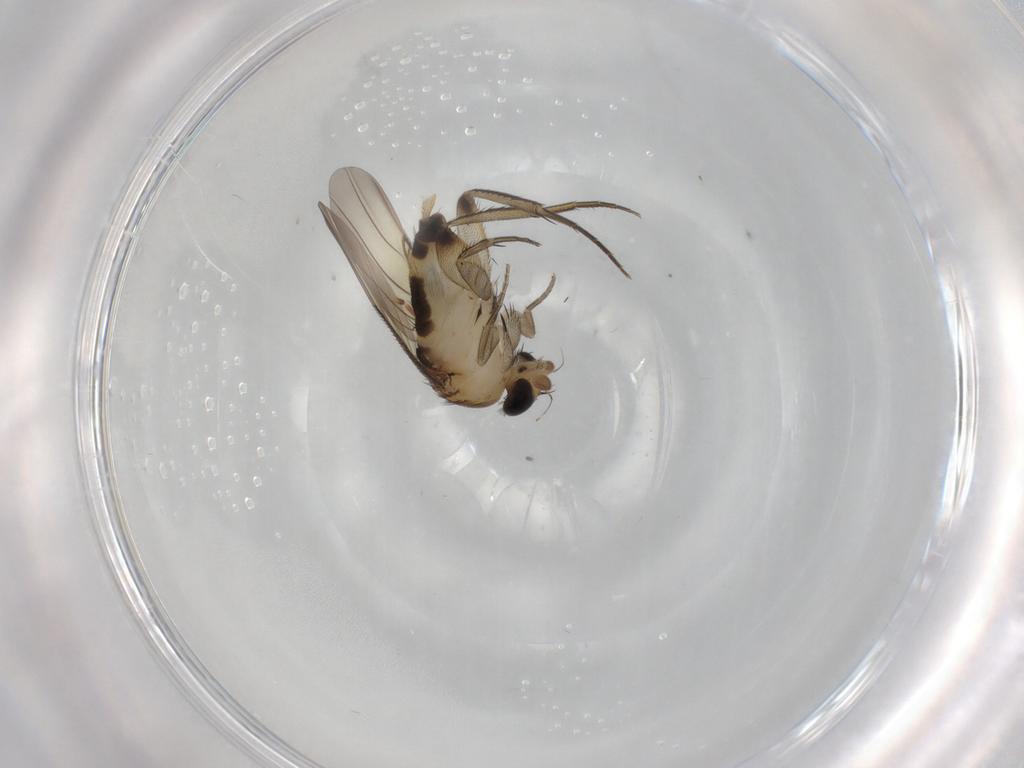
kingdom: Animalia
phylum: Arthropoda
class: Insecta
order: Diptera
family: Phoridae
